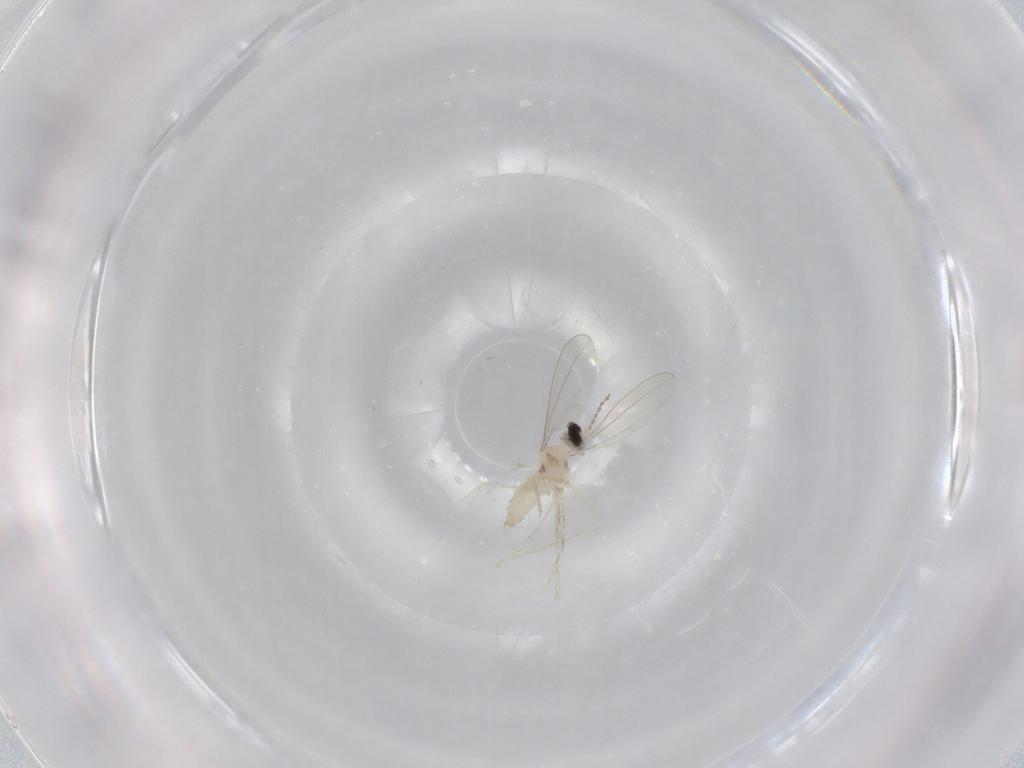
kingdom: Animalia
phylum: Arthropoda
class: Insecta
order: Diptera
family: Cecidomyiidae
